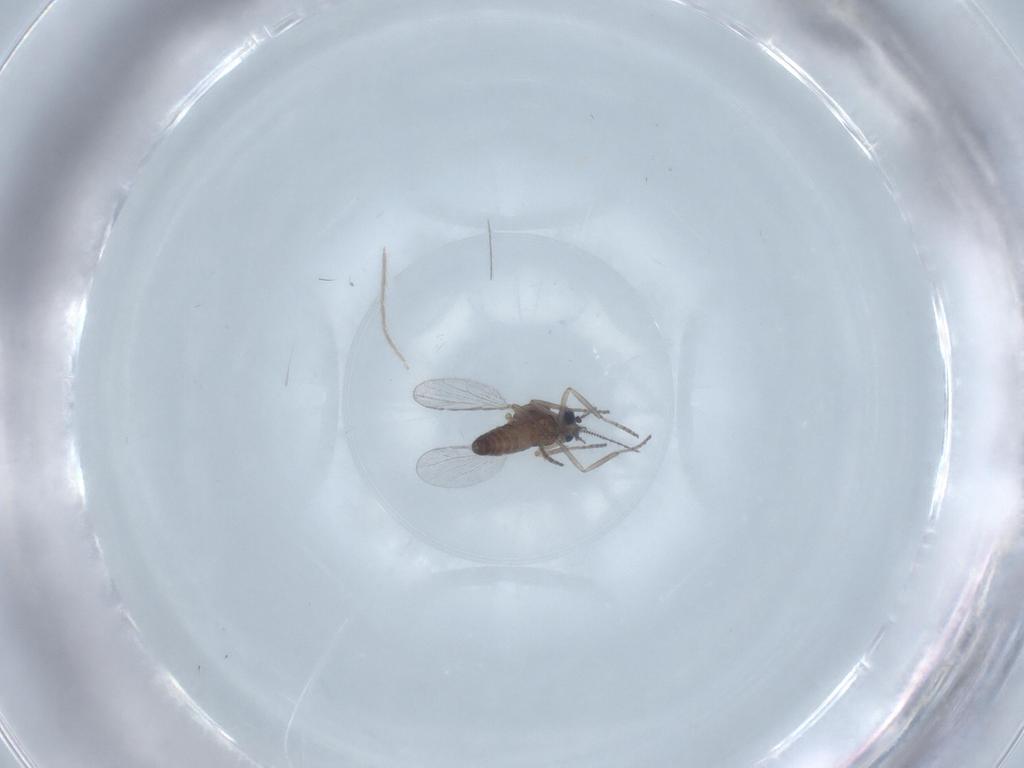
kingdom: Animalia
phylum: Arthropoda
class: Insecta
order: Diptera
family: Chironomidae
